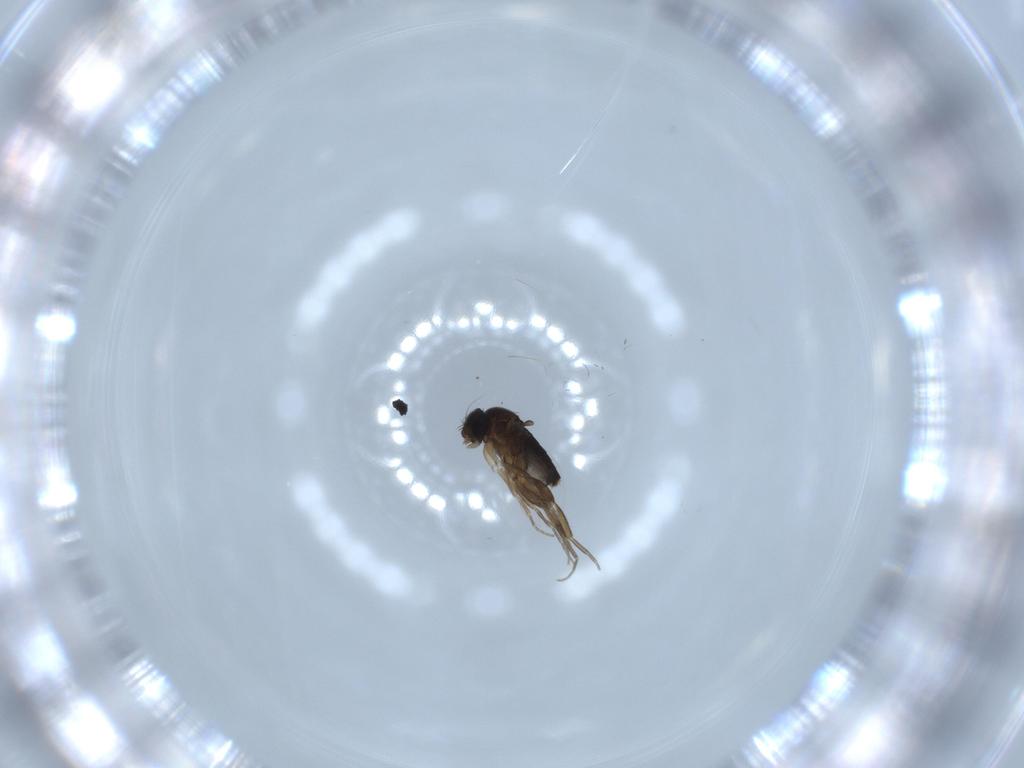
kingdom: Animalia
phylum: Arthropoda
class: Insecta
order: Diptera
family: Phoridae
